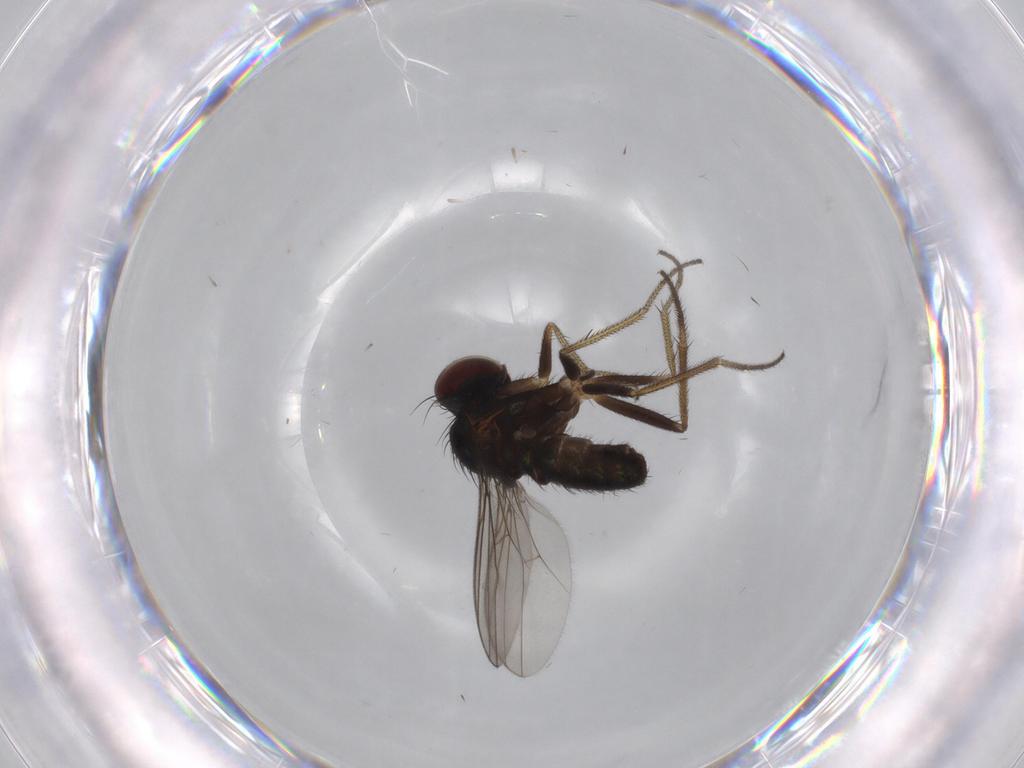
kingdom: Animalia
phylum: Arthropoda
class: Insecta
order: Diptera
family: Dolichopodidae
